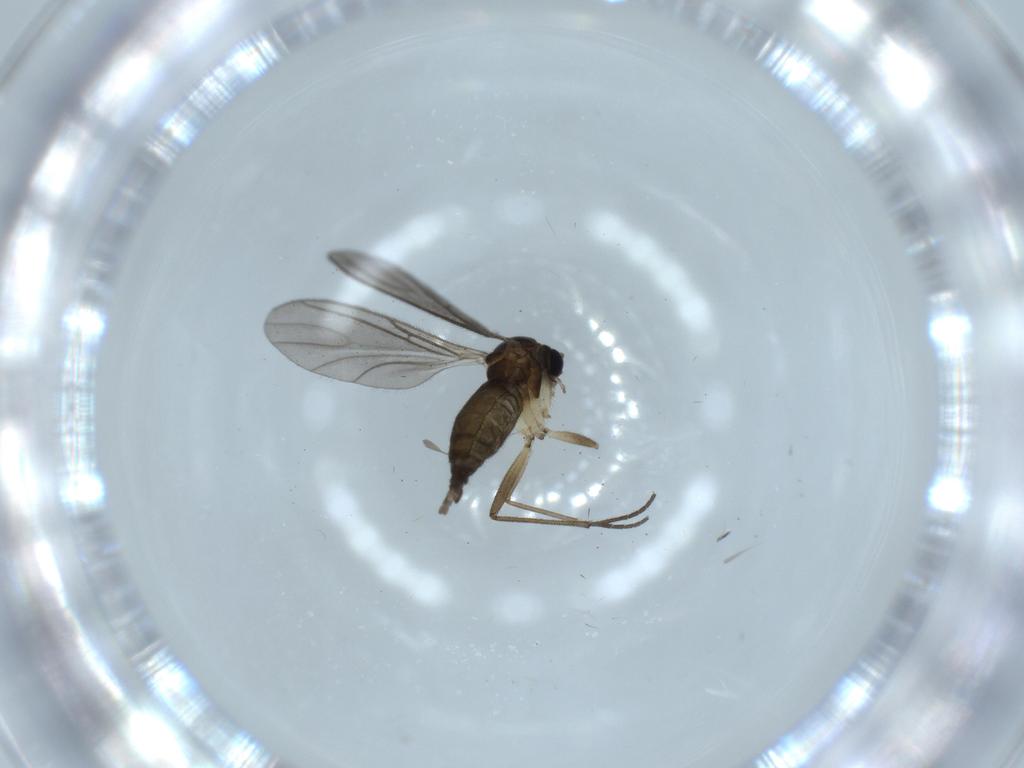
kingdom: Animalia
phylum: Arthropoda
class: Insecta
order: Diptera
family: Sciaridae
